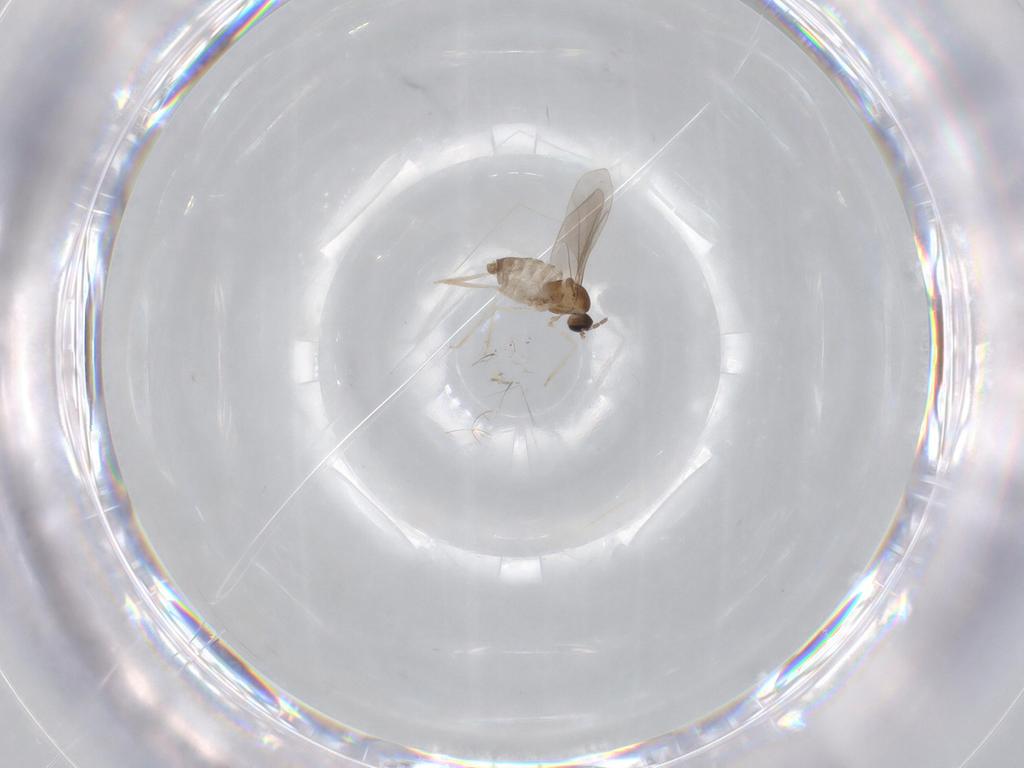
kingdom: Animalia
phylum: Arthropoda
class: Insecta
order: Diptera
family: Cecidomyiidae
